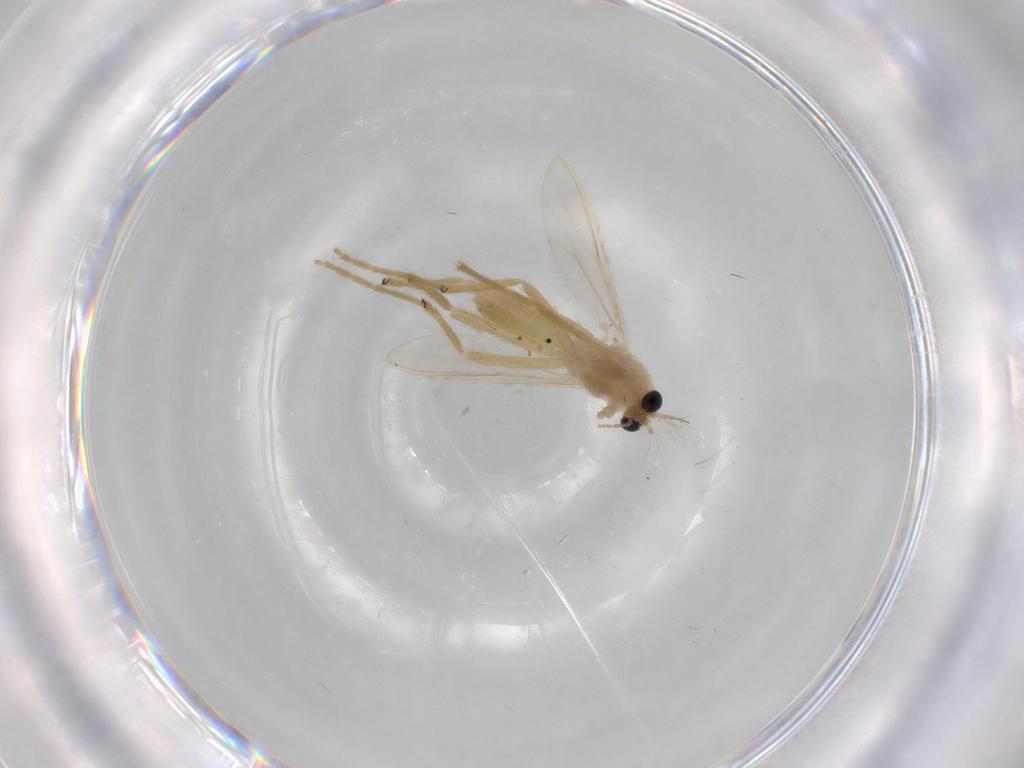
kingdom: Animalia
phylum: Arthropoda
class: Insecta
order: Diptera
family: Chironomidae
